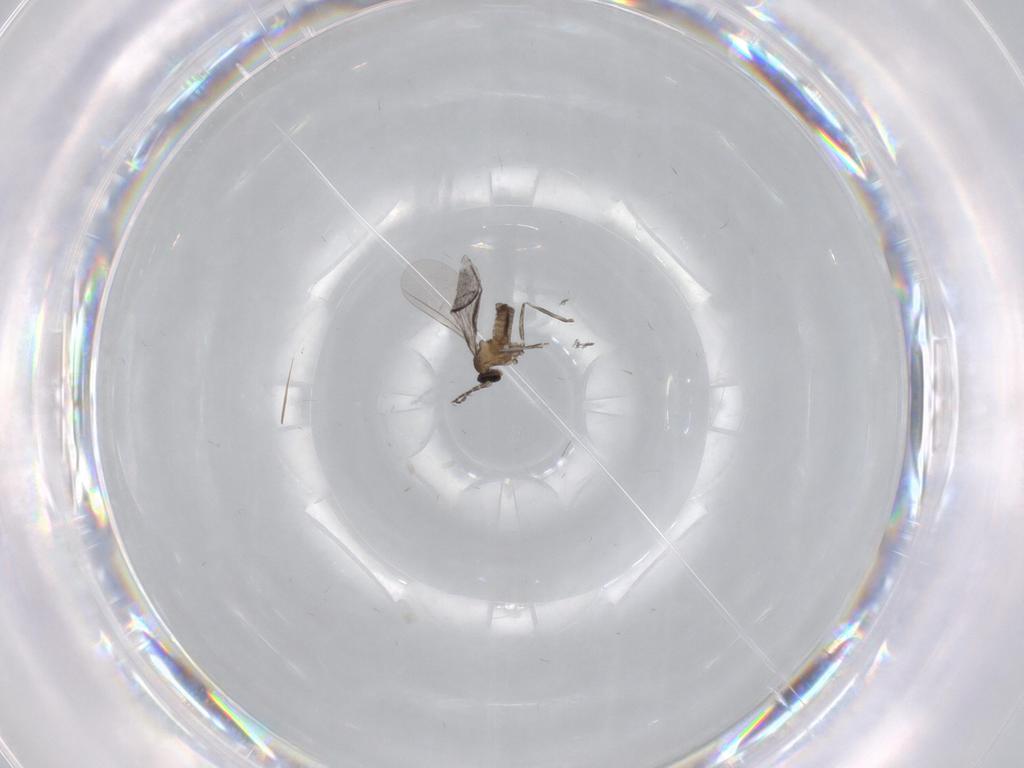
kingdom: Animalia
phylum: Arthropoda
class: Insecta
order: Diptera
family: Cecidomyiidae
